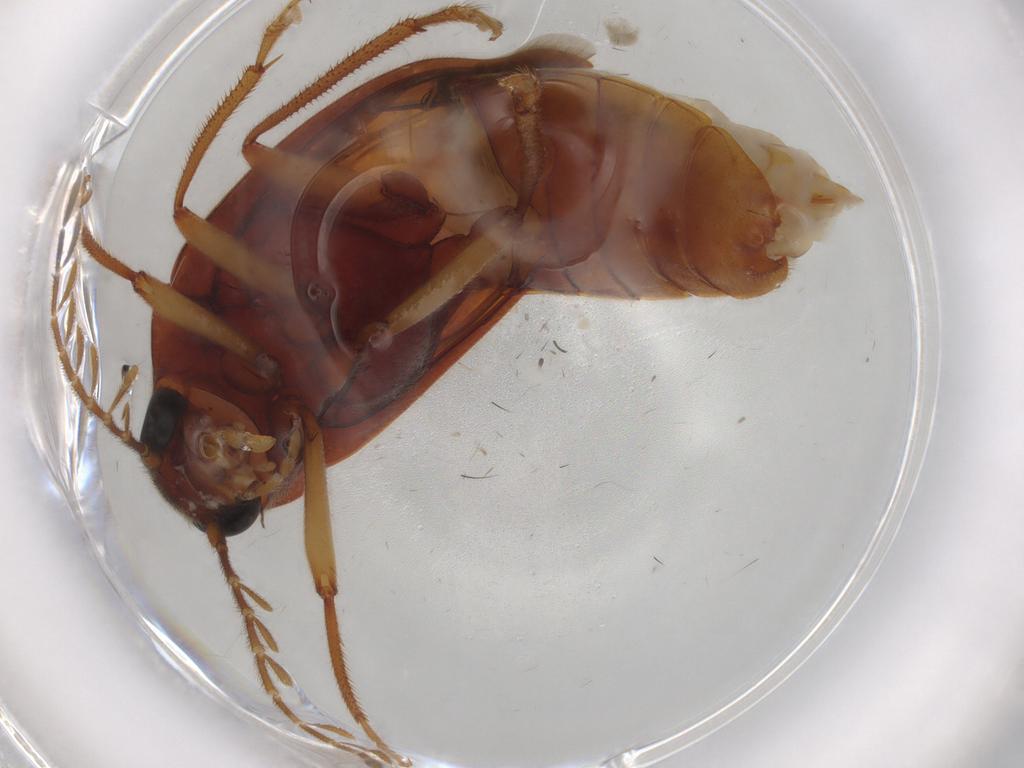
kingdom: Animalia
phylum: Arthropoda
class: Insecta
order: Coleoptera
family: Ptilodactylidae
